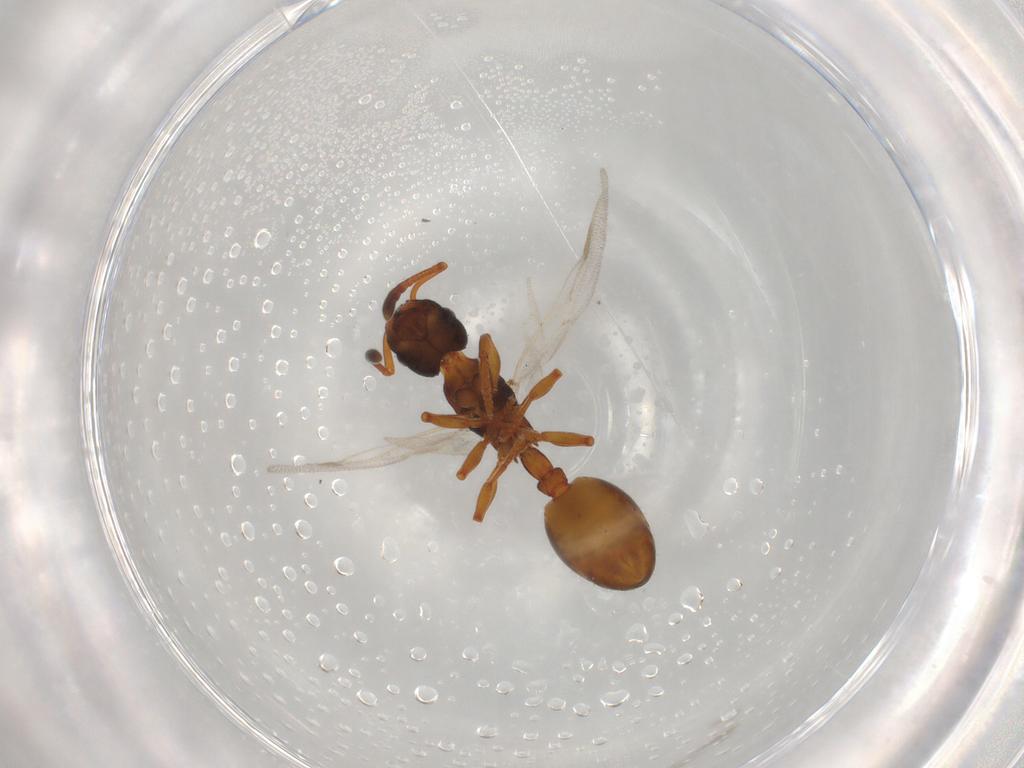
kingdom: Animalia
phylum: Arthropoda
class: Insecta
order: Hymenoptera
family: Formicidae
